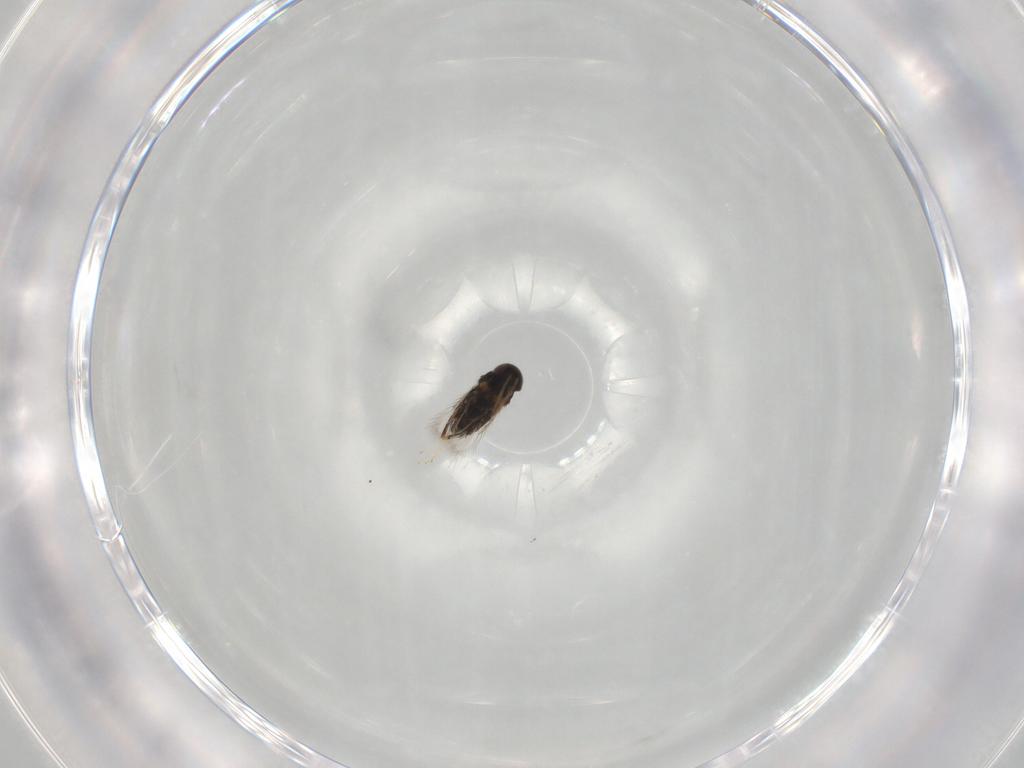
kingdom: Animalia
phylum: Arthropoda
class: Insecta
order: Hymenoptera
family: Signiphoridae
